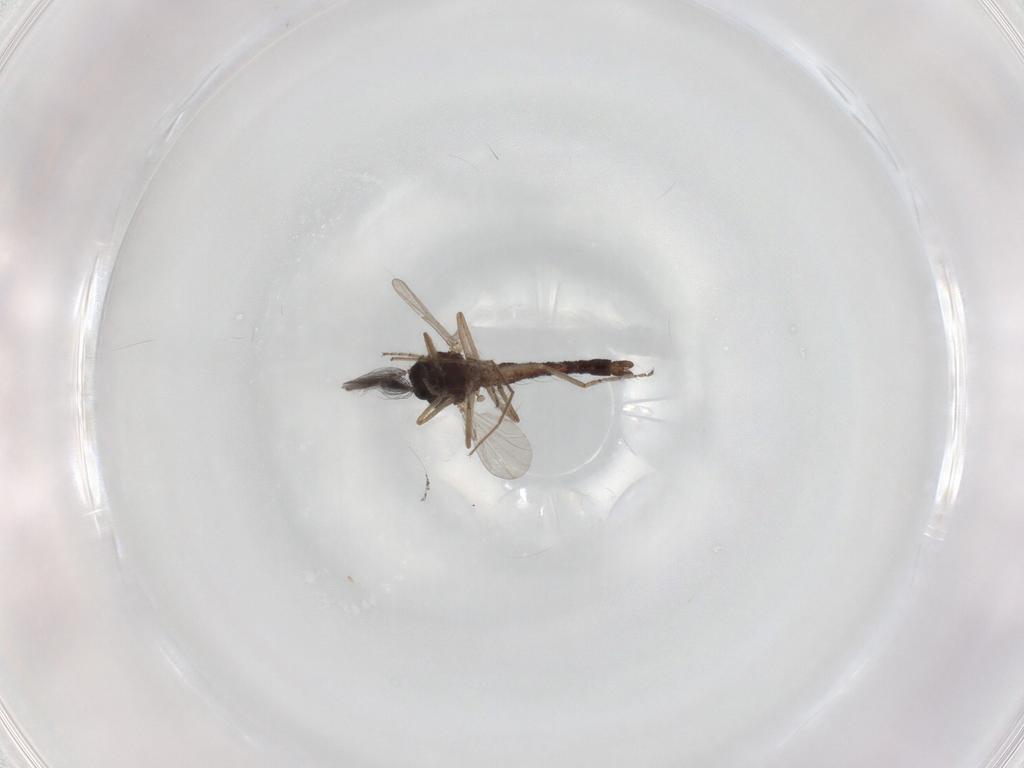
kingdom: Animalia
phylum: Arthropoda
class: Insecta
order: Diptera
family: Ceratopogonidae
